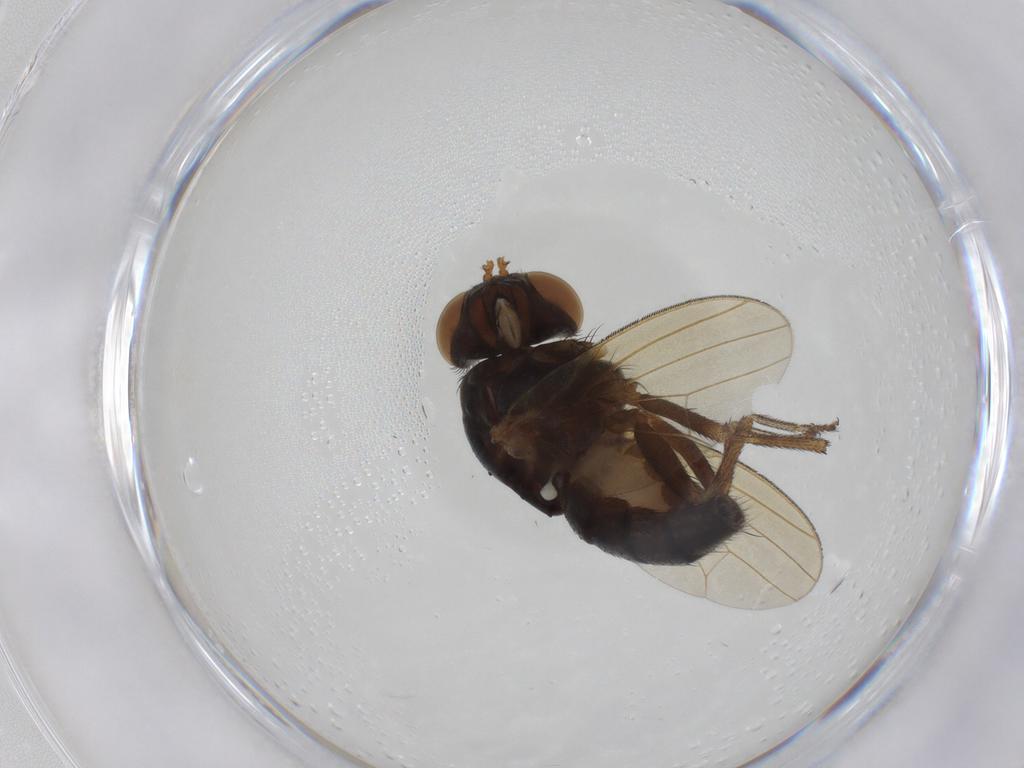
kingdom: Animalia
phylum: Arthropoda
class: Insecta
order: Diptera
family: Lauxaniidae
